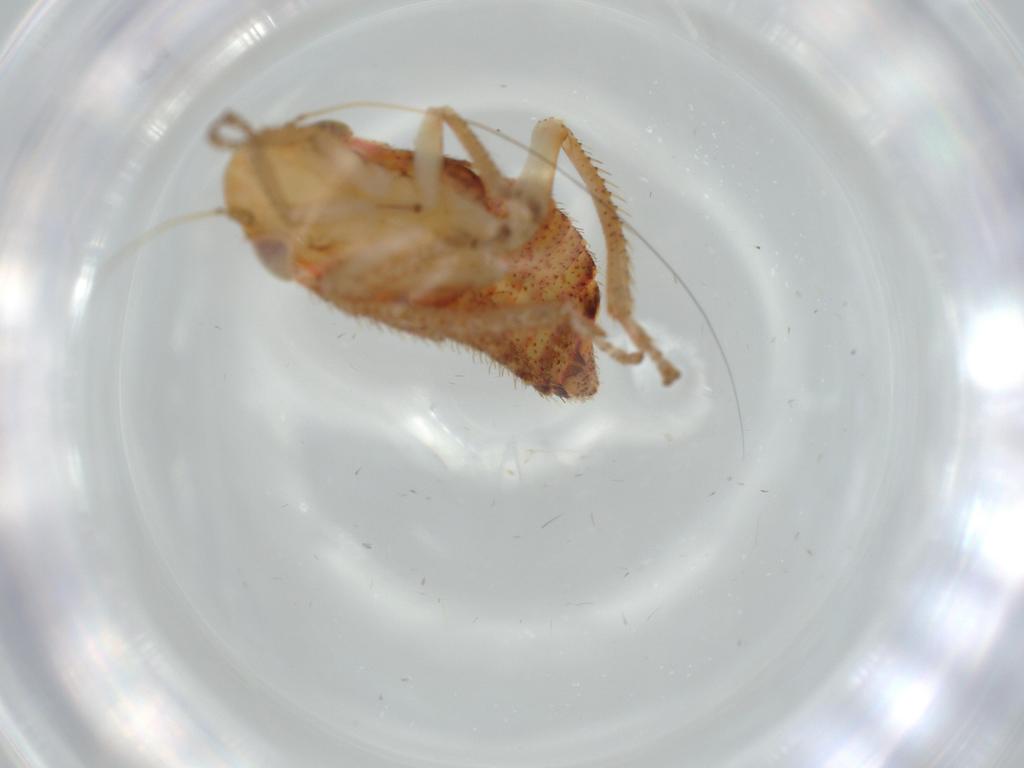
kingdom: Animalia
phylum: Arthropoda
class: Insecta
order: Hemiptera
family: Cicadellidae
